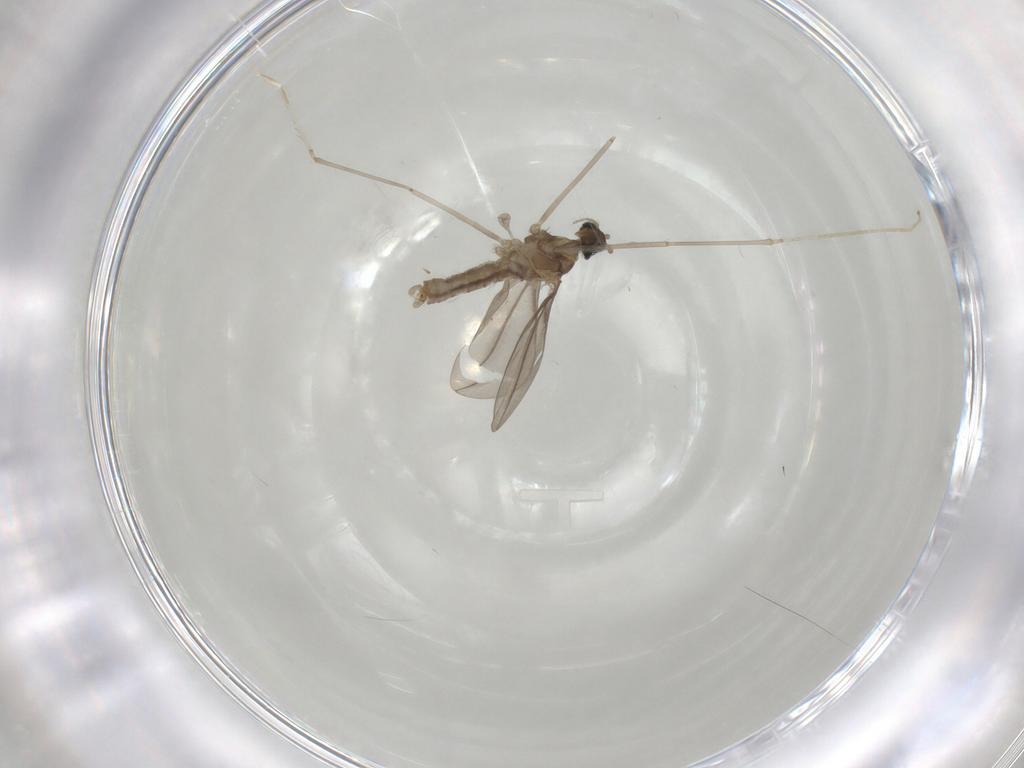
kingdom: Animalia
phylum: Arthropoda
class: Insecta
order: Diptera
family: Cecidomyiidae
